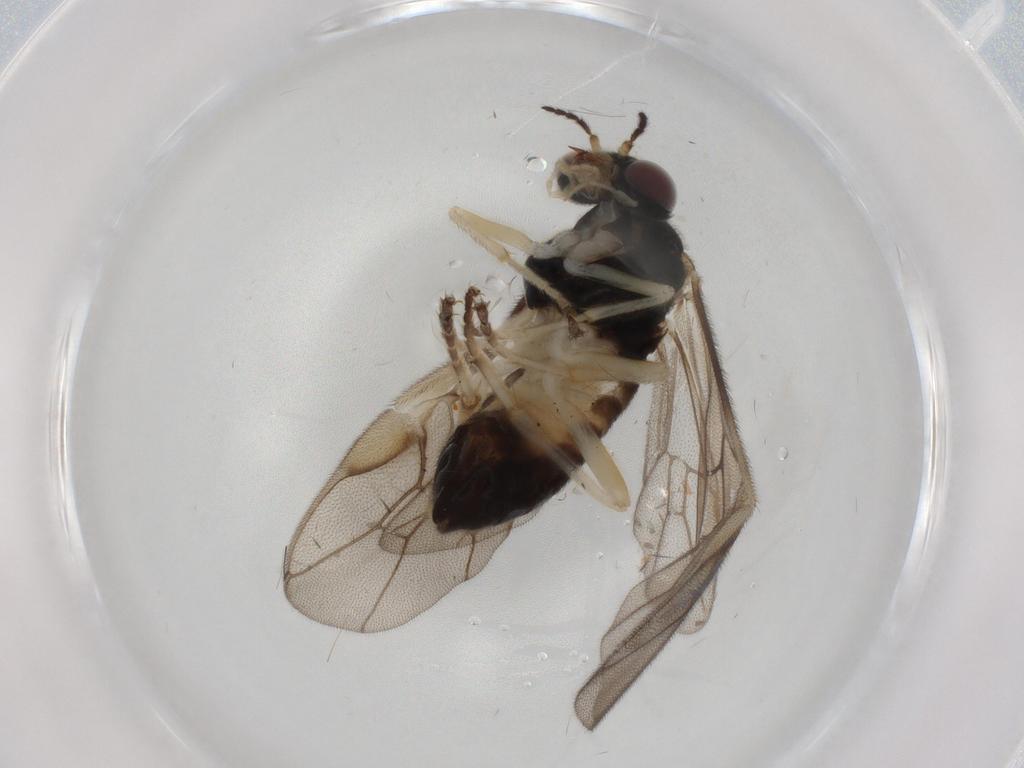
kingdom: Animalia
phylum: Arthropoda
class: Insecta
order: Hymenoptera
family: Pergidae
